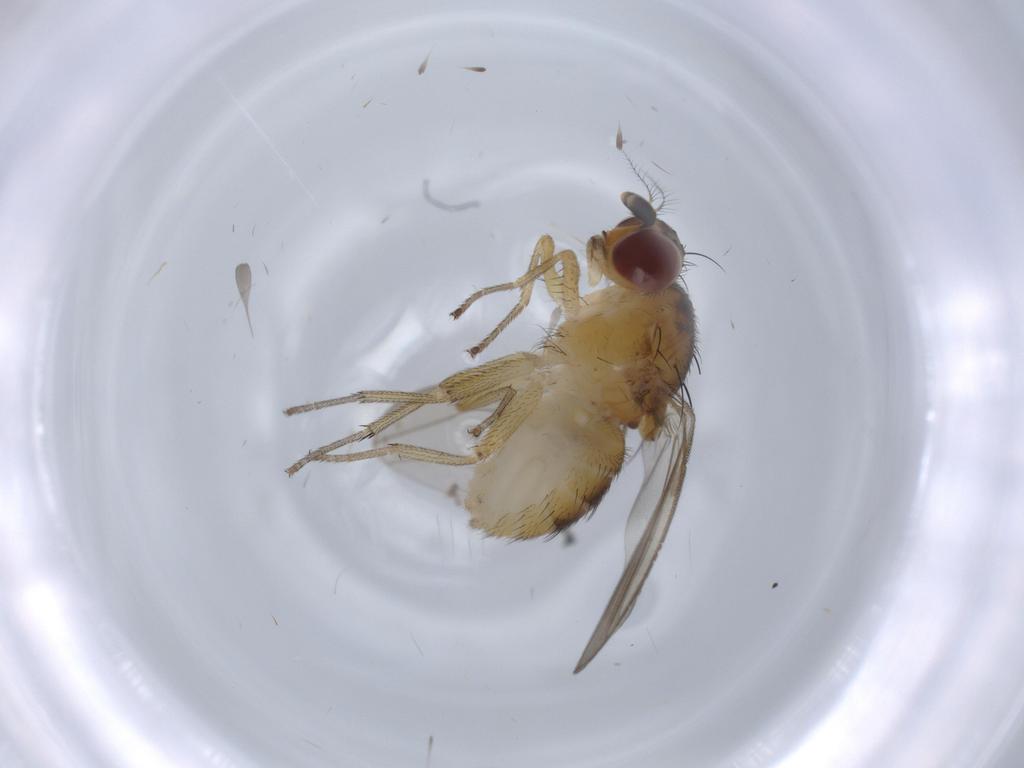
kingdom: Animalia
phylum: Arthropoda
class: Insecta
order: Diptera
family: Lauxaniidae
